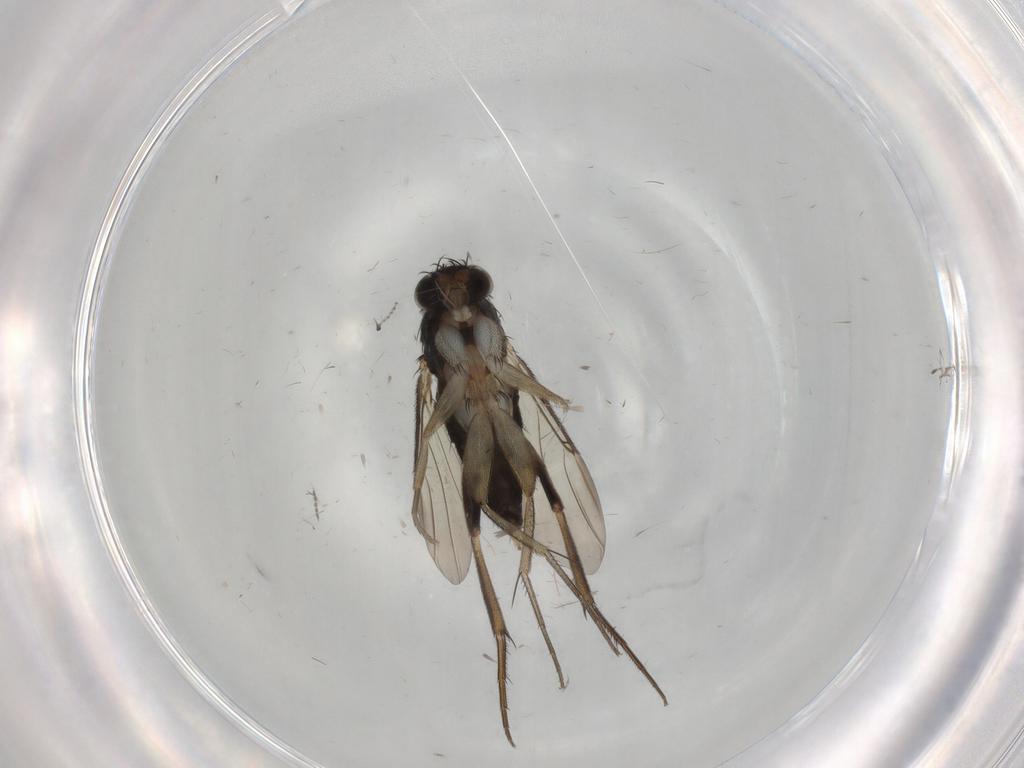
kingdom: Animalia
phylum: Arthropoda
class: Insecta
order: Diptera
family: Phoridae
